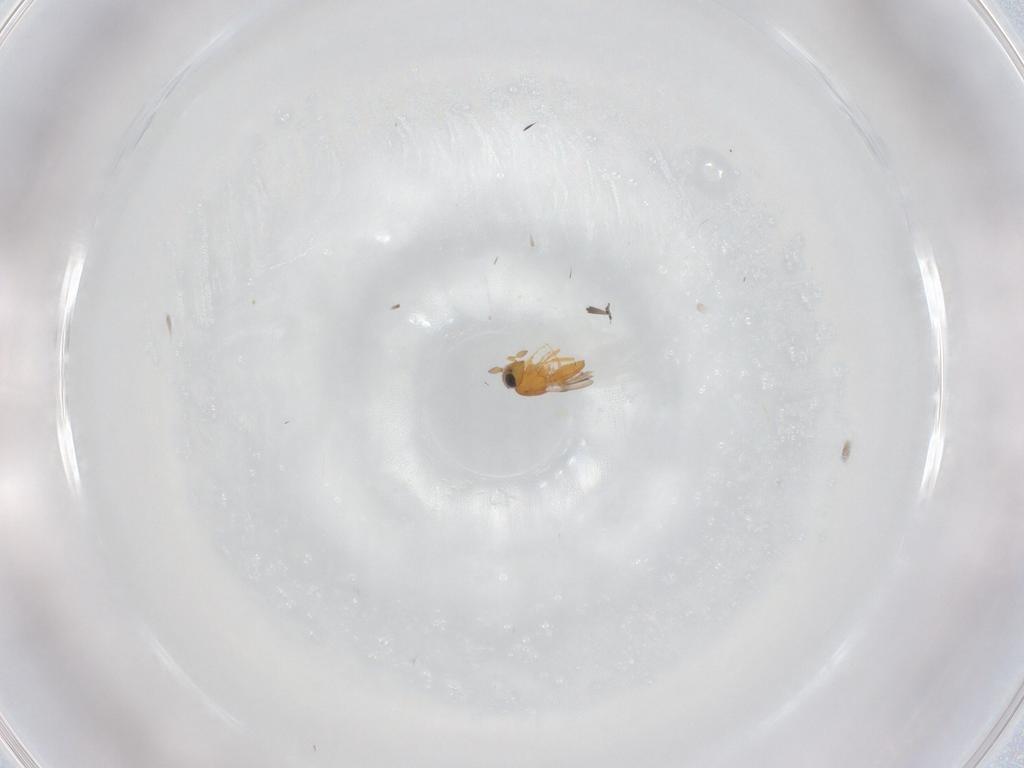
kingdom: Animalia
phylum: Arthropoda
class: Insecta
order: Hymenoptera
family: Scelionidae
